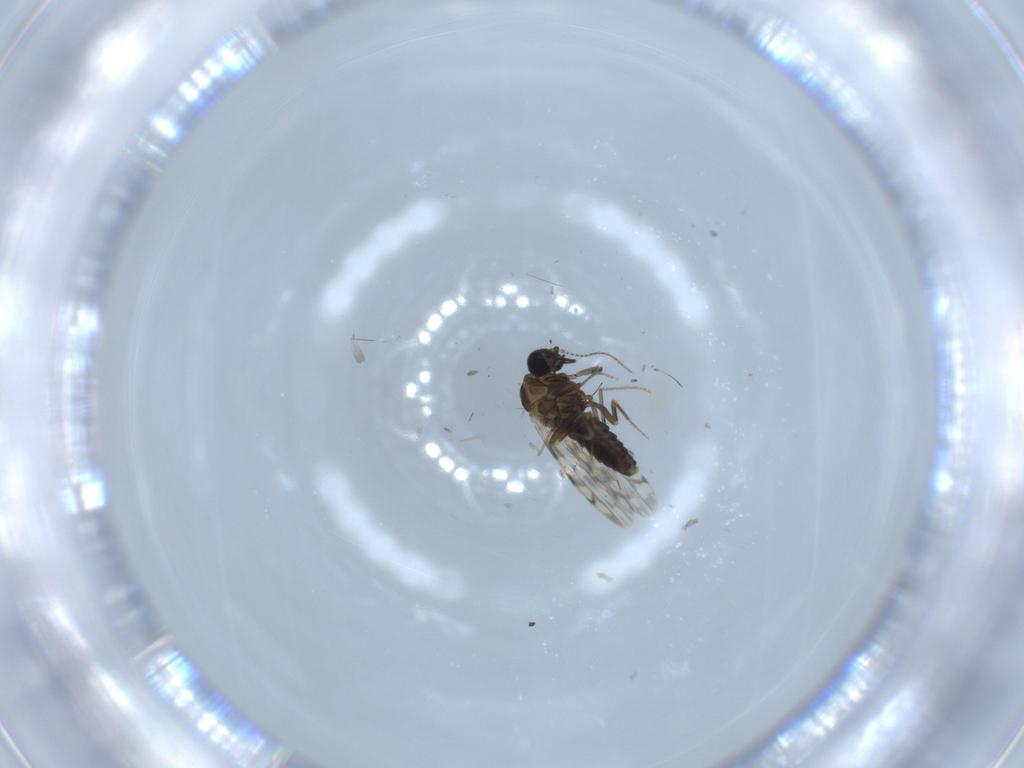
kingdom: Animalia
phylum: Arthropoda
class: Insecta
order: Diptera
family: Ceratopogonidae
